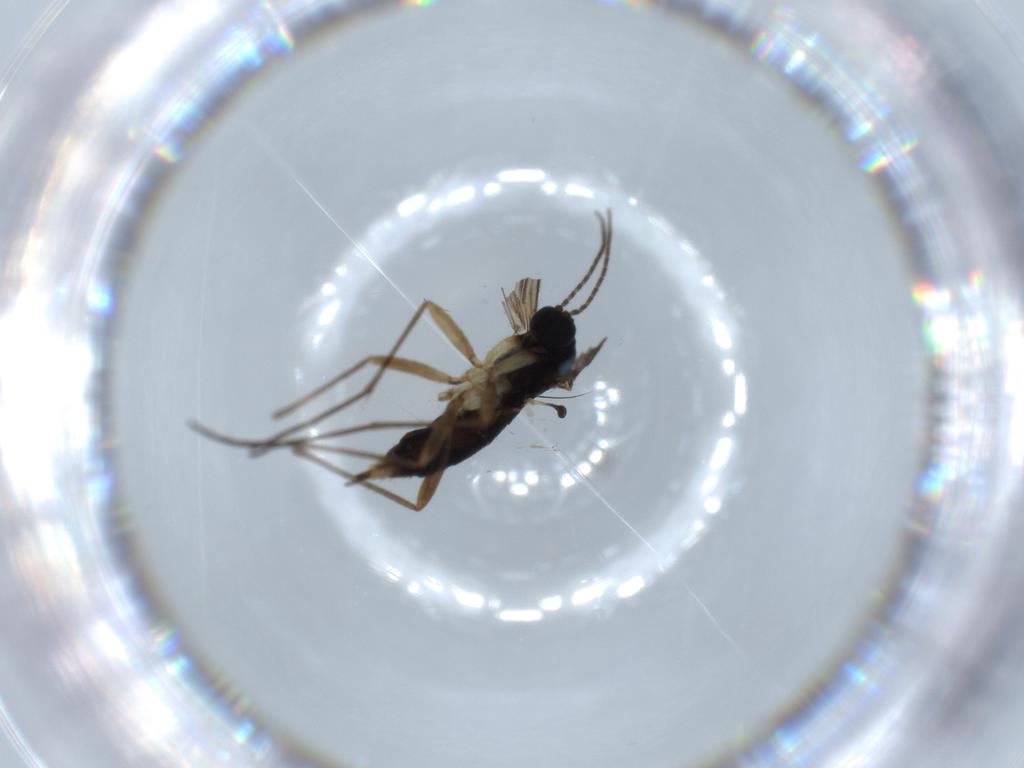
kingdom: Animalia
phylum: Arthropoda
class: Insecta
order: Diptera
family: Sciaridae
